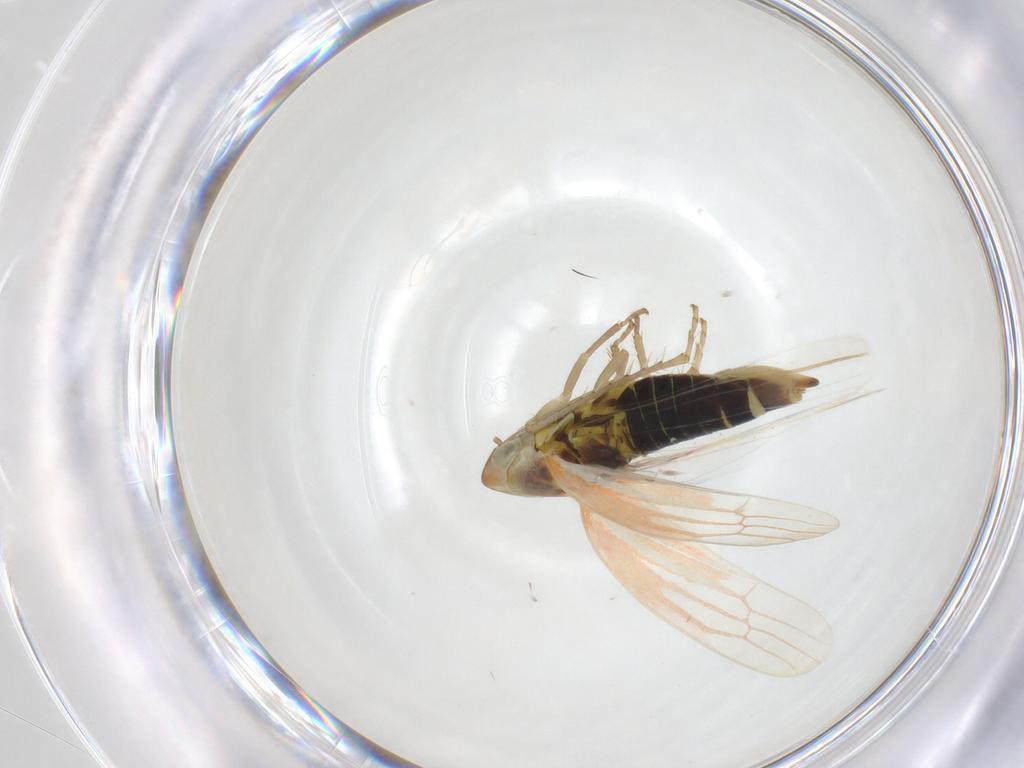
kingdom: Animalia
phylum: Arthropoda
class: Insecta
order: Hemiptera
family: Cicadellidae
